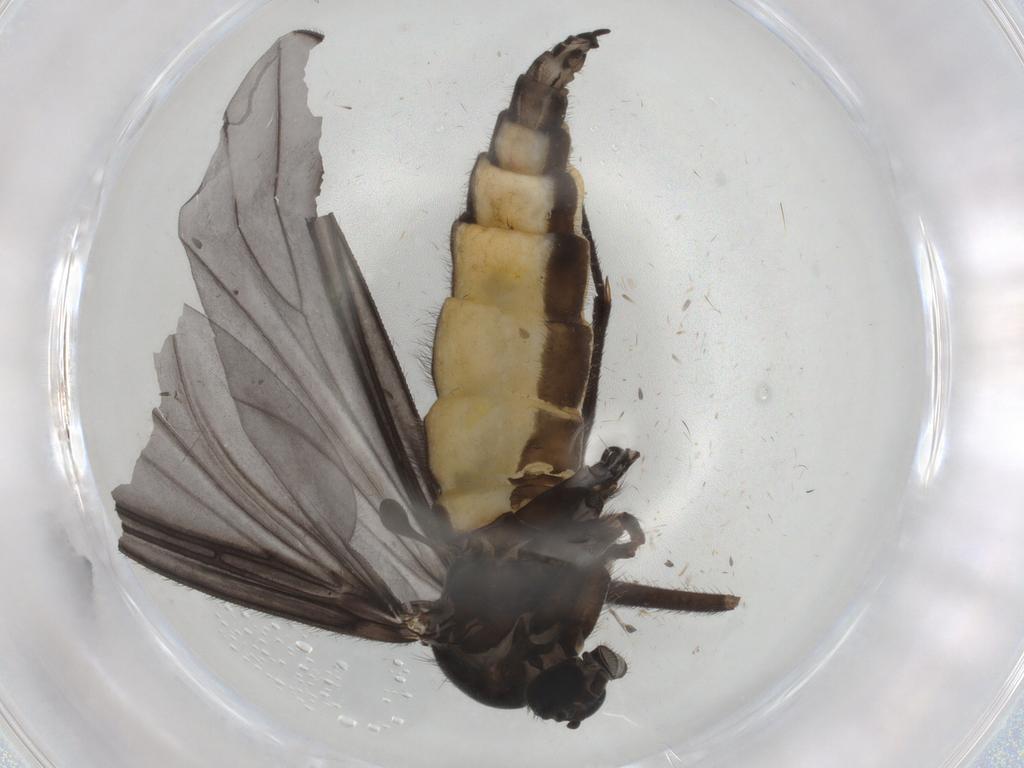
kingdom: Animalia
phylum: Arthropoda
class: Insecta
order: Diptera
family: Sciaridae
